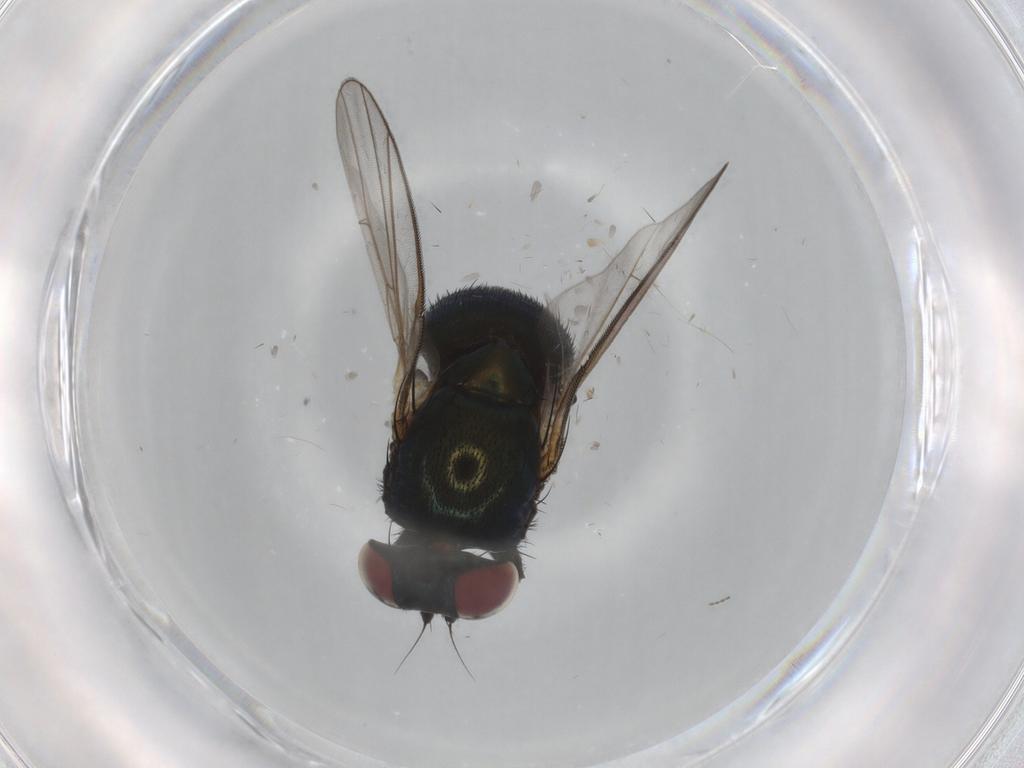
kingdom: Animalia
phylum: Arthropoda
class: Insecta
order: Diptera
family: Agromyzidae
